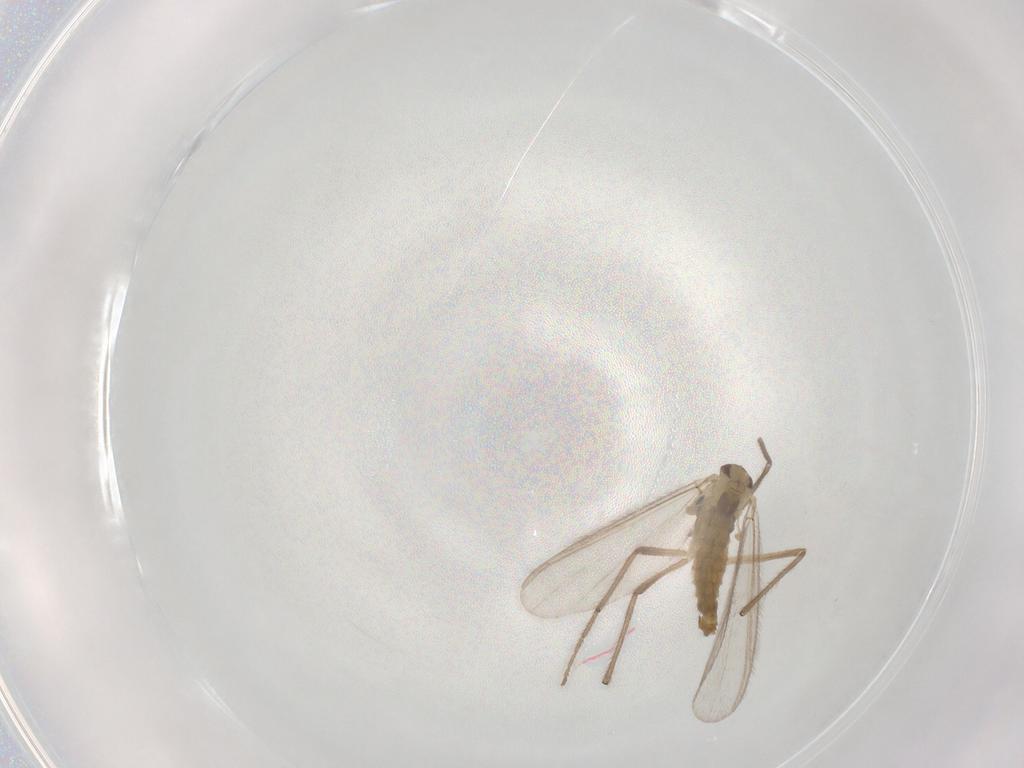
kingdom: Animalia
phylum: Arthropoda
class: Insecta
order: Diptera
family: Chironomidae
